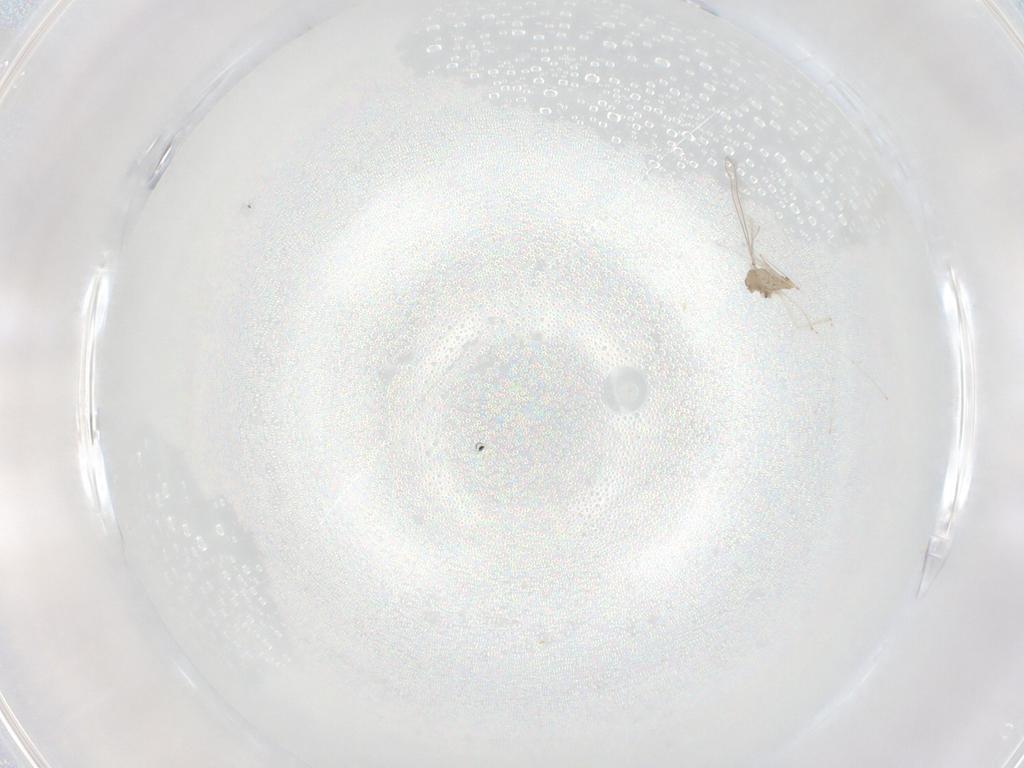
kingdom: Animalia
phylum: Arthropoda
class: Insecta
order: Diptera
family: Cecidomyiidae
